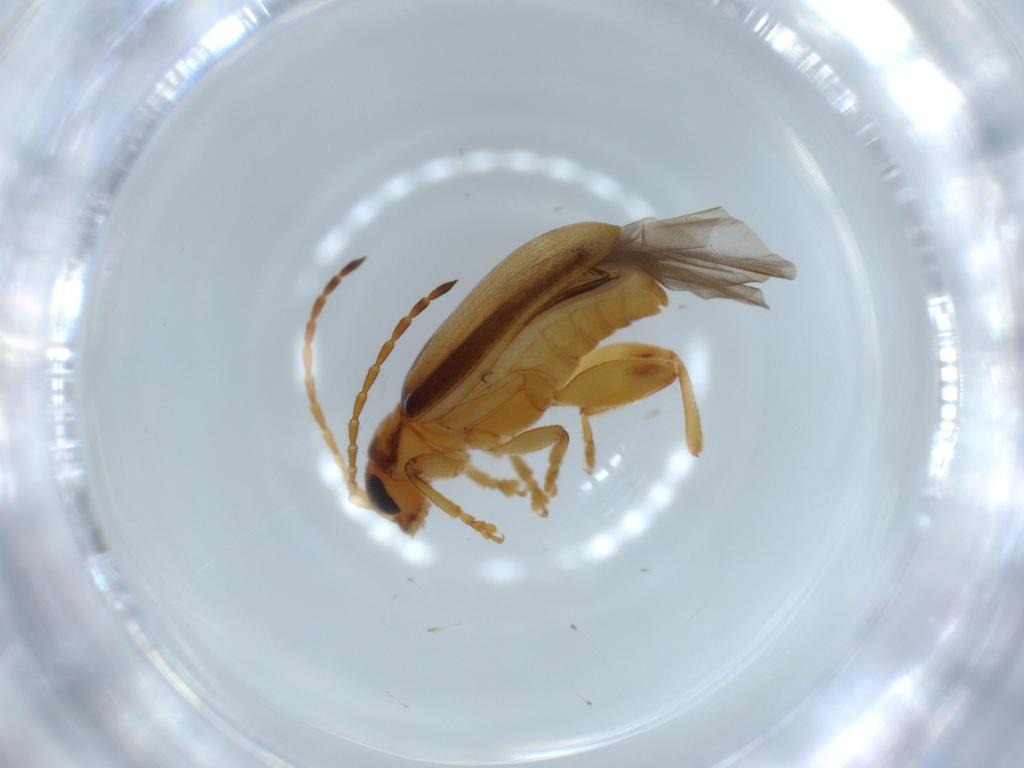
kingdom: Animalia
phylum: Arthropoda
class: Insecta
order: Coleoptera
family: Chrysomelidae
